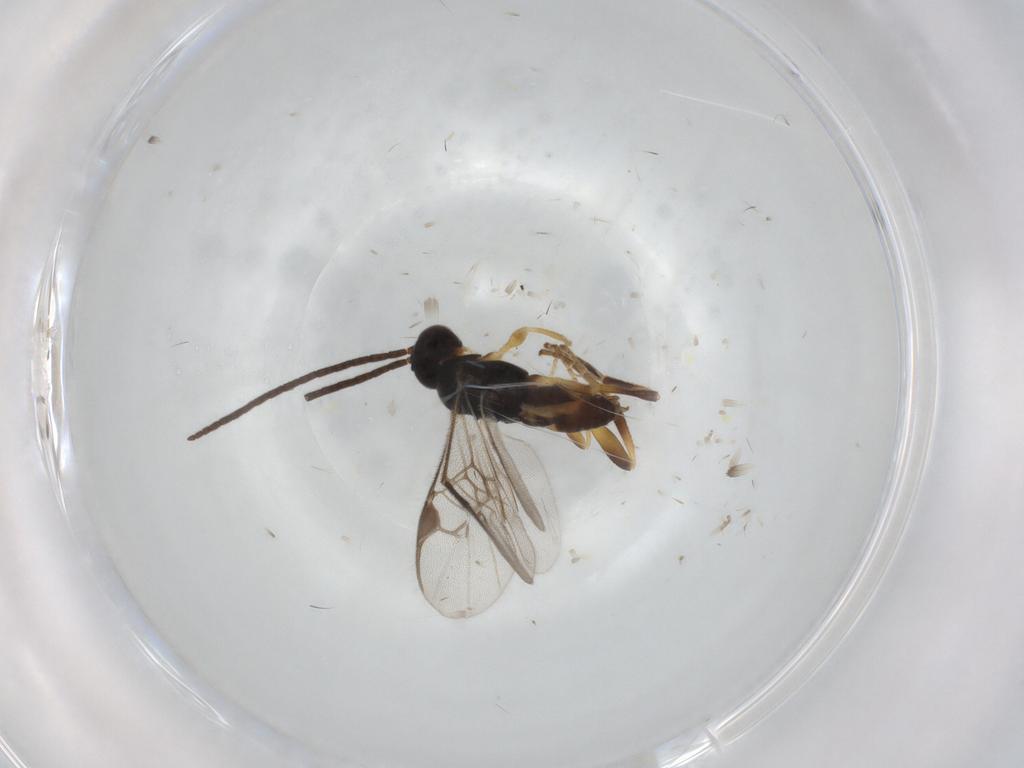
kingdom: Animalia
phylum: Arthropoda
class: Insecta
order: Hymenoptera
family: Braconidae
